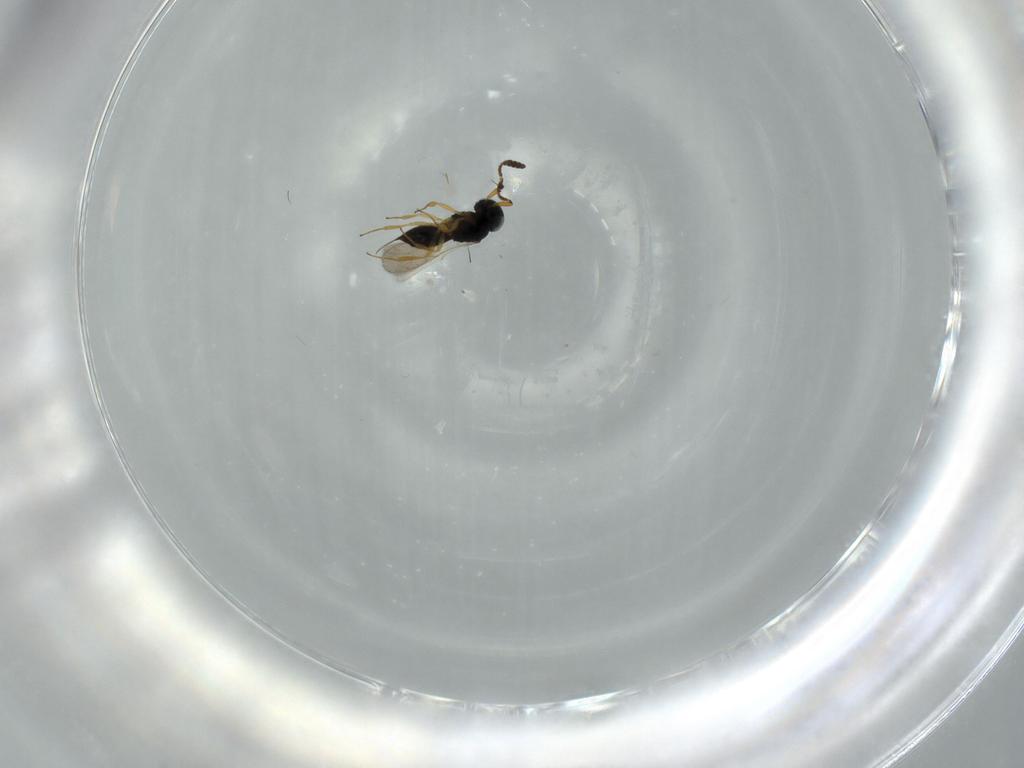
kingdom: Animalia
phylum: Arthropoda
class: Insecta
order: Hymenoptera
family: Scelionidae
